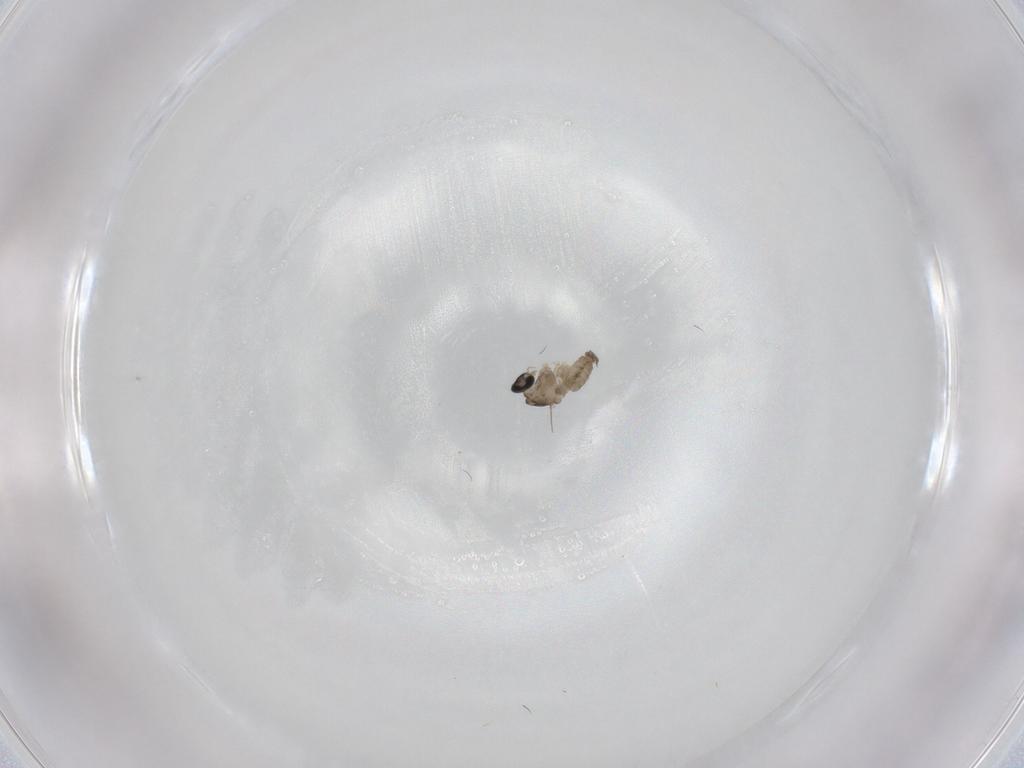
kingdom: Animalia
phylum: Arthropoda
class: Insecta
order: Diptera
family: Cecidomyiidae
